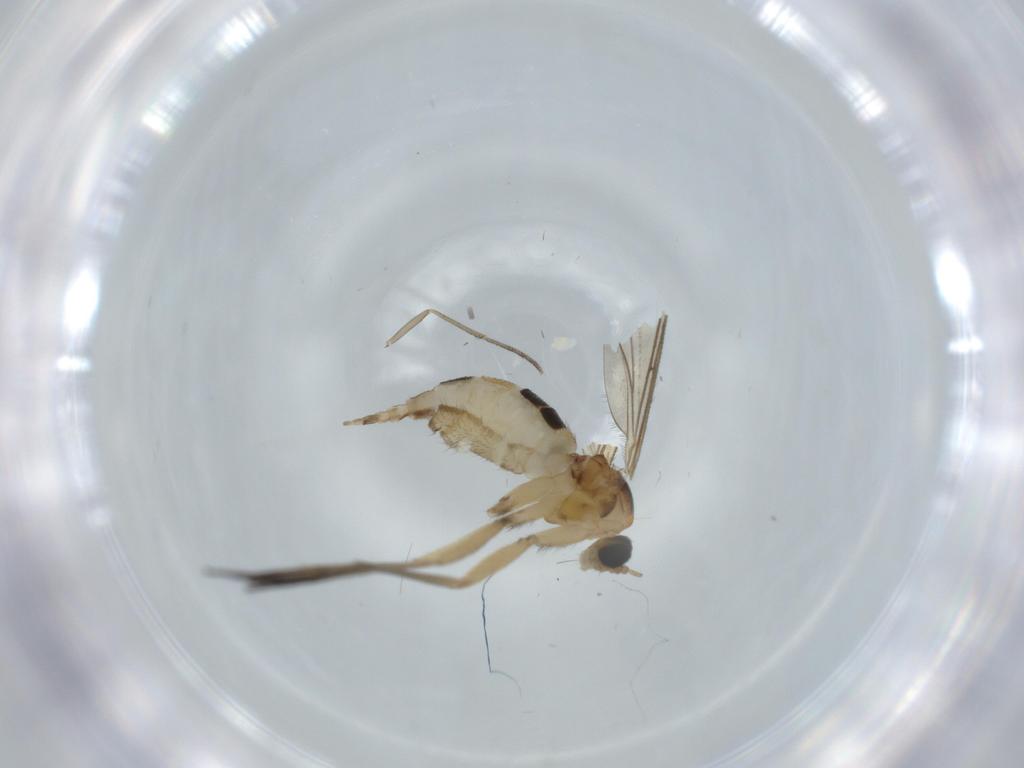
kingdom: Animalia
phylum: Arthropoda
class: Insecta
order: Diptera
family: Sciaridae
